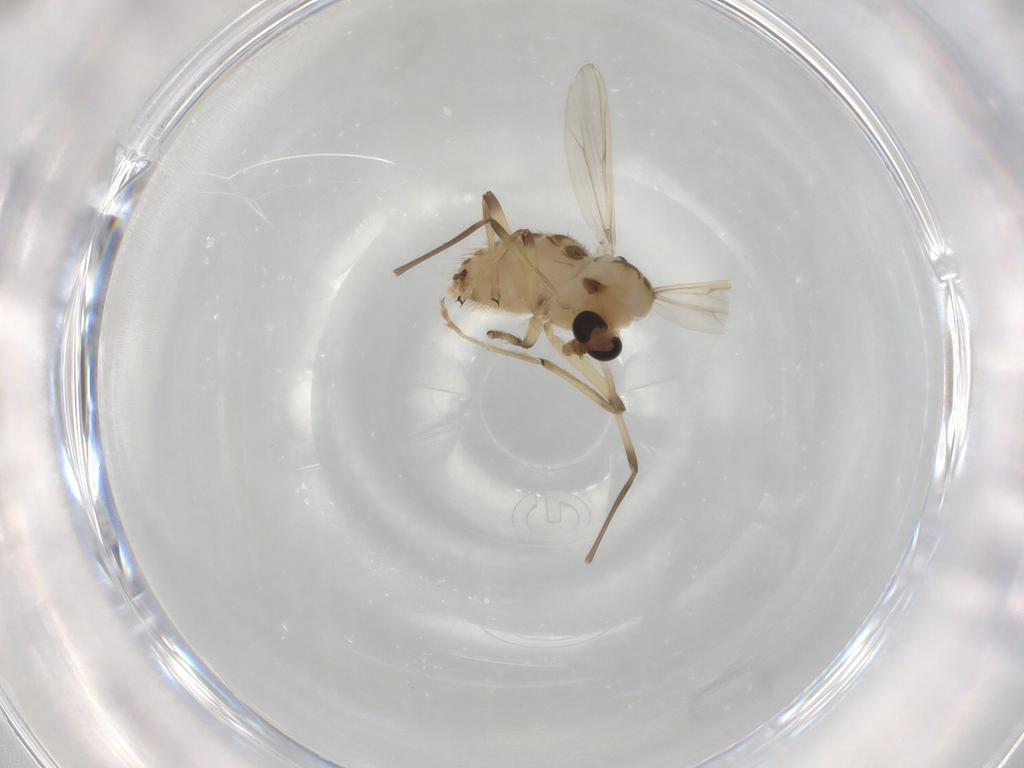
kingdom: Animalia
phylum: Arthropoda
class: Insecta
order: Diptera
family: Chironomidae
